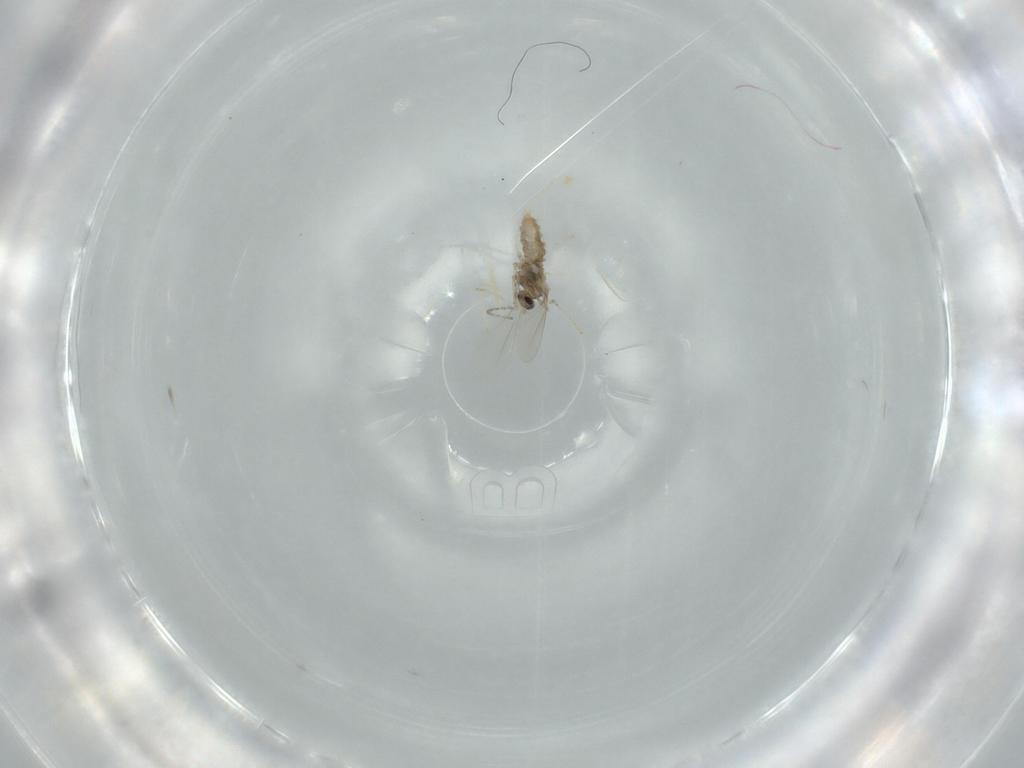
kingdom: Animalia
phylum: Arthropoda
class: Insecta
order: Diptera
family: Cecidomyiidae
